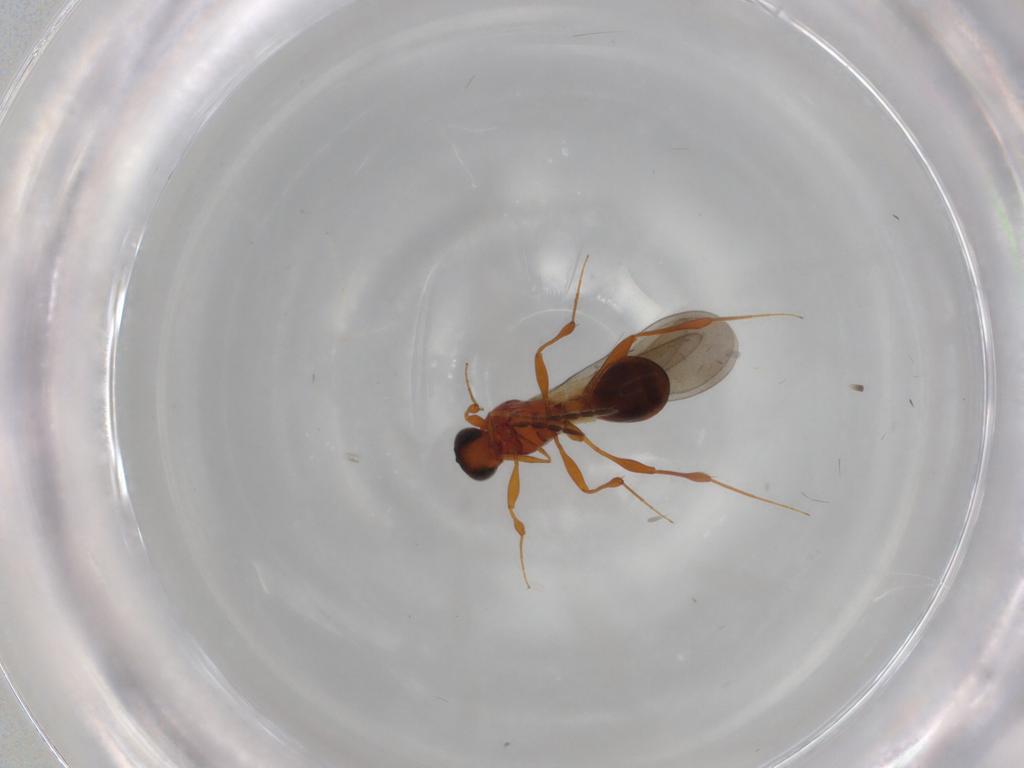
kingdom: Animalia
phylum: Arthropoda
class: Insecta
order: Hymenoptera
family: Platygastridae
